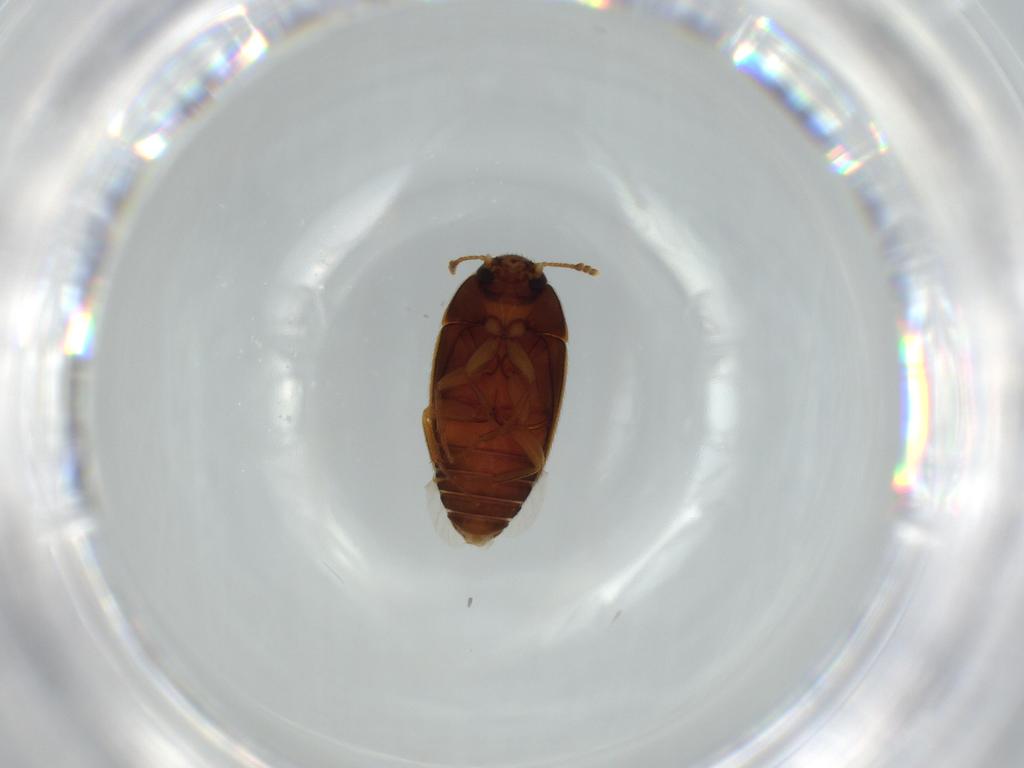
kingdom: Animalia
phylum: Arthropoda
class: Insecta
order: Coleoptera
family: Mycetophagidae
